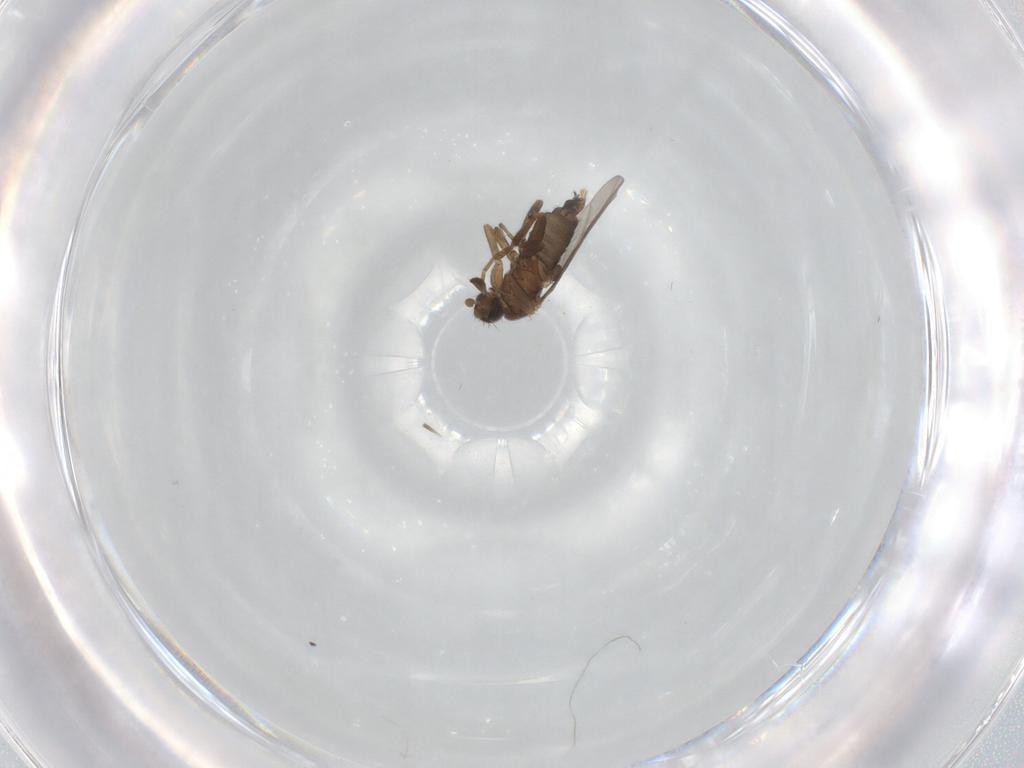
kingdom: Animalia
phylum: Arthropoda
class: Insecta
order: Diptera
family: Phoridae
